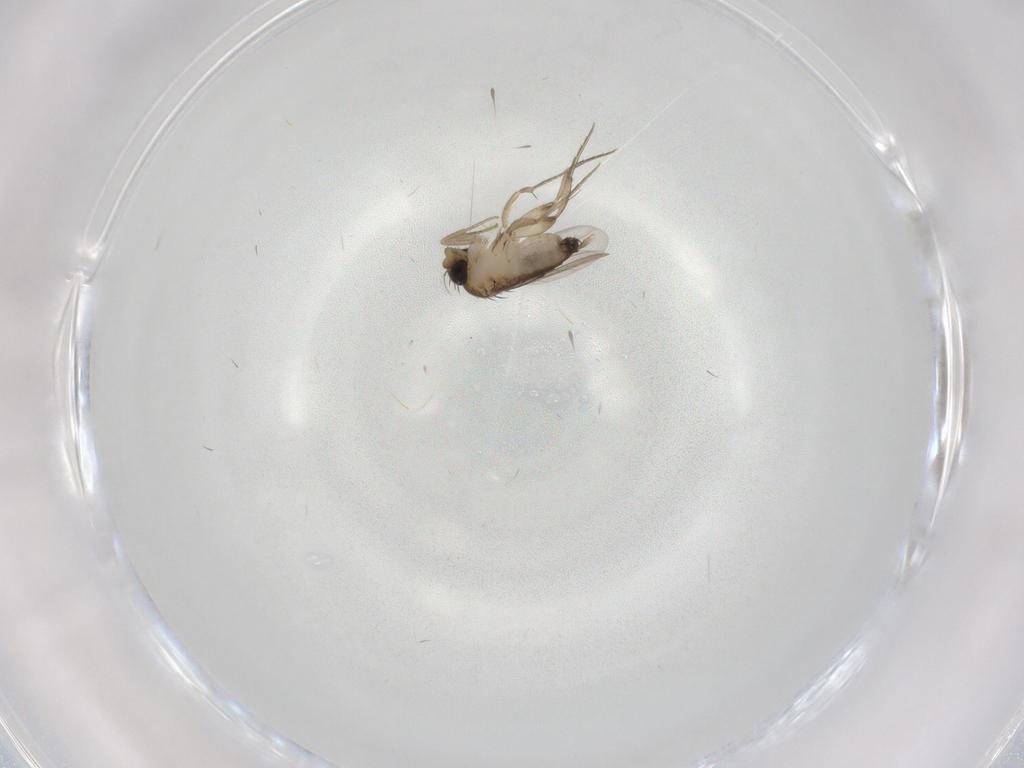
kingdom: Animalia
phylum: Arthropoda
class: Insecta
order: Diptera
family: Phoridae
